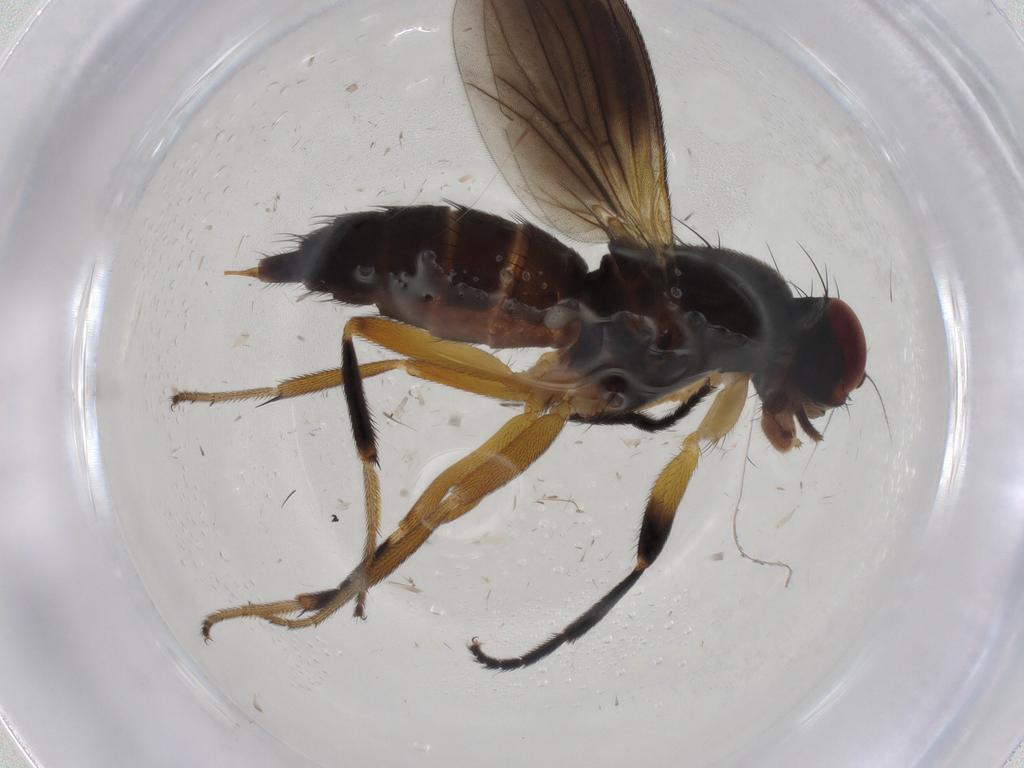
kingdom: Animalia
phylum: Arthropoda
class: Insecta
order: Diptera
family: Clusiidae
